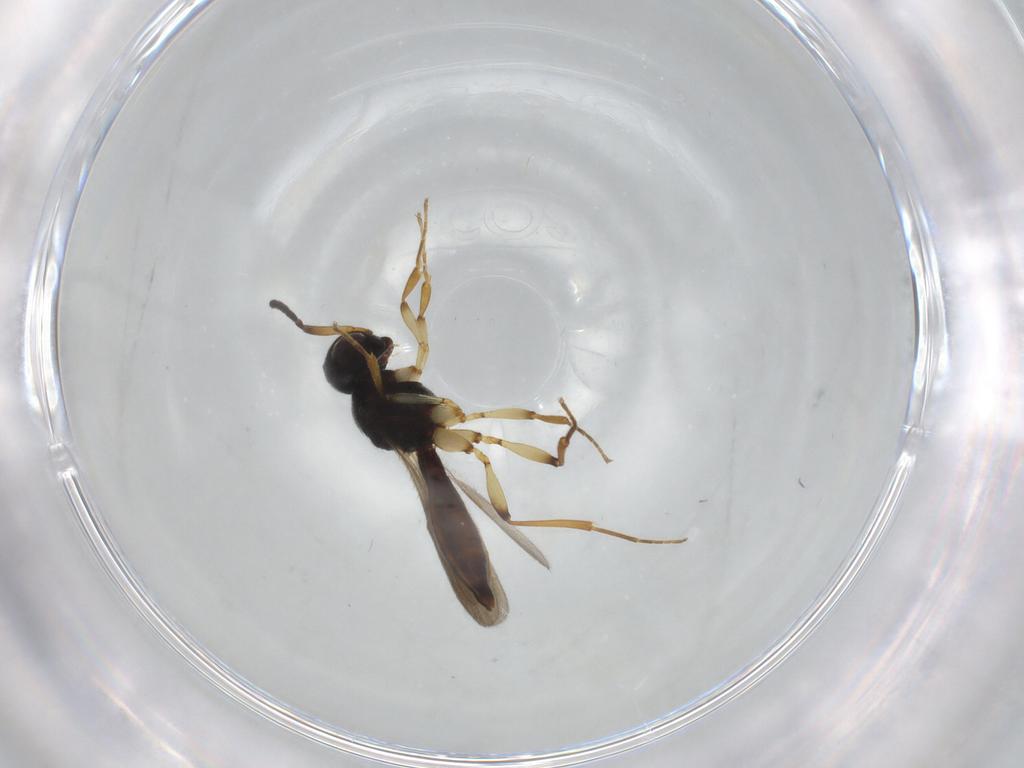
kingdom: Animalia
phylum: Arthropoda
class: Insecta
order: Hymenoptera
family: Scelionidae
